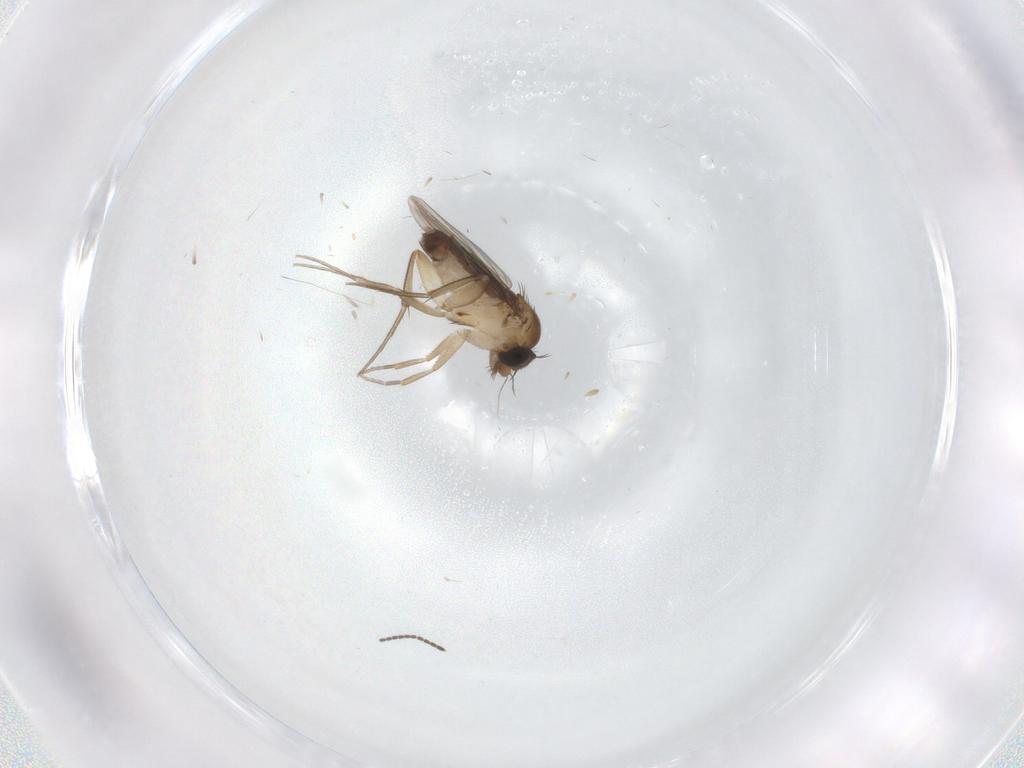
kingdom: Animalia
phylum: Arthropoda
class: Insecta
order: Diptera
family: Phoridae
